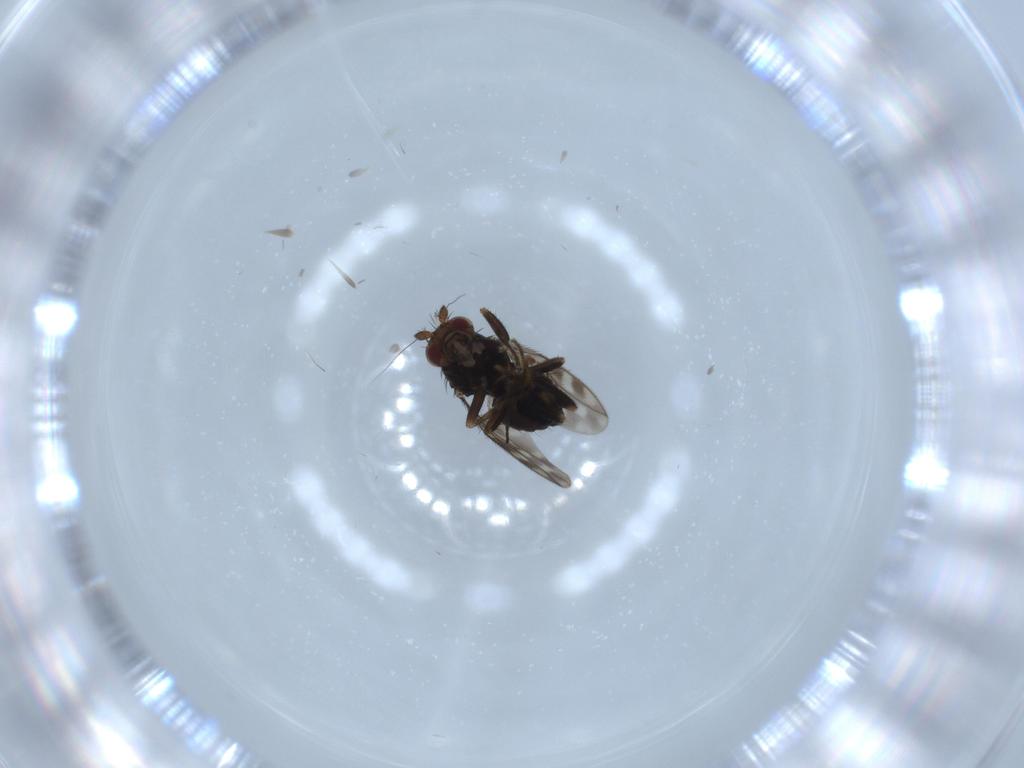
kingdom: Animalia
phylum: Arthropoda
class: Insecta
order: Diptera
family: Sphaeroceridae
